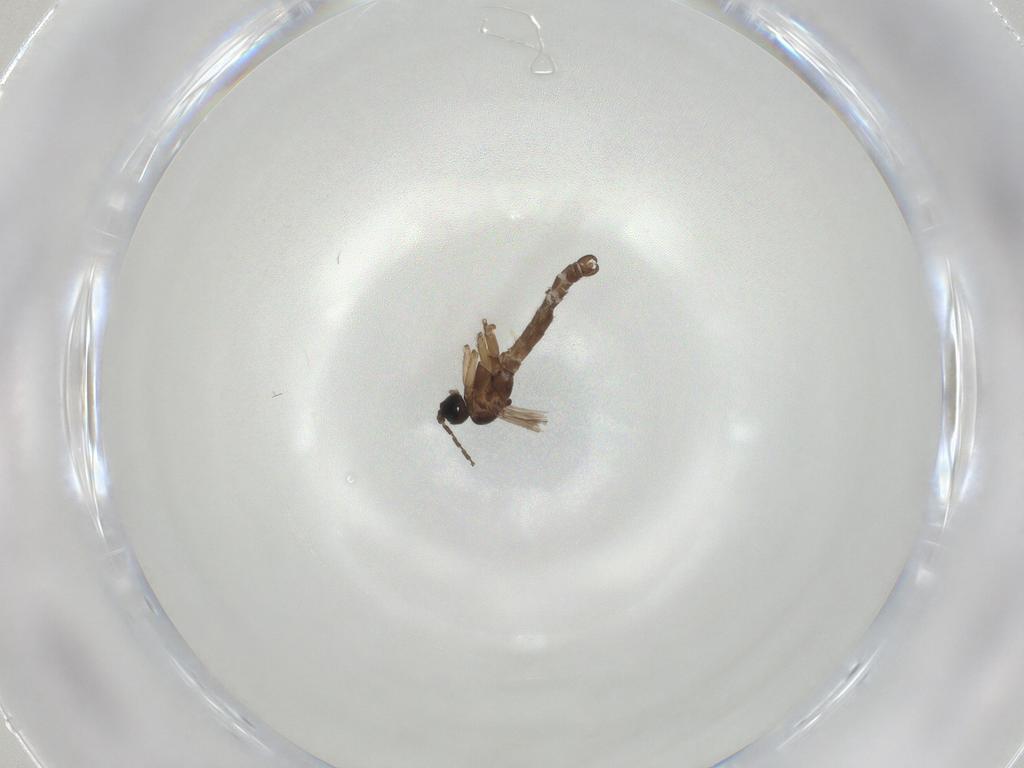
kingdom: Animalia
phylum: Arthropoda
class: Insecta
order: Diptera
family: Sciaridae
